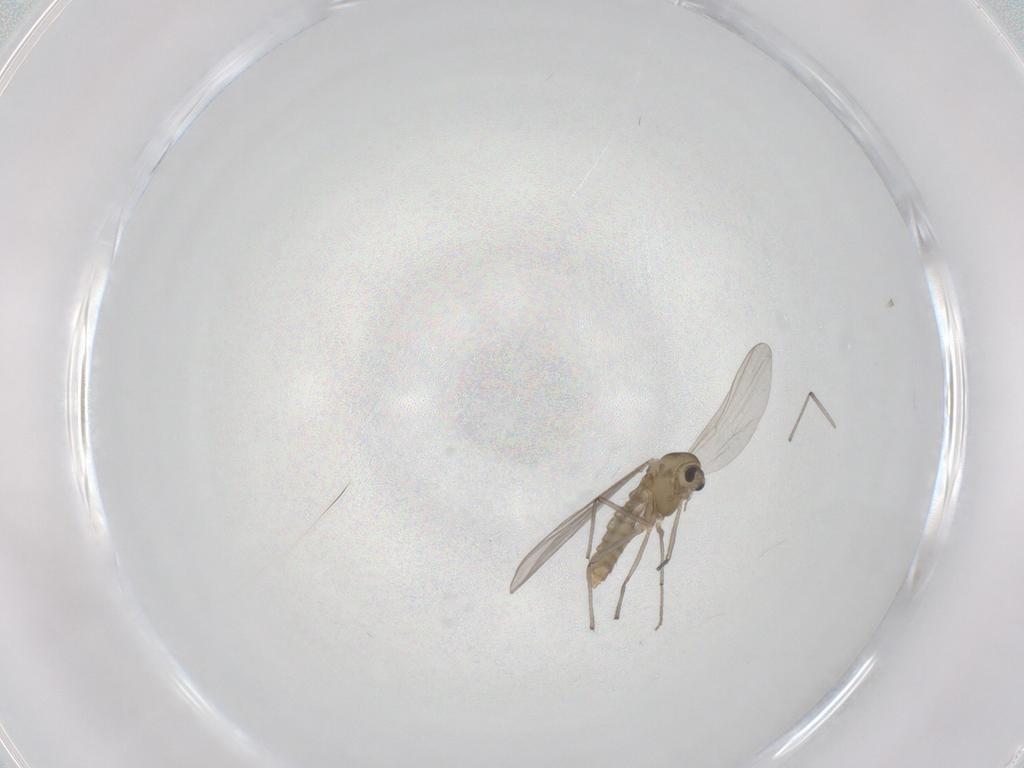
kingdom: Animalia
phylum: Arthropoda
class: Insecta
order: Diptera
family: Chironomidae
